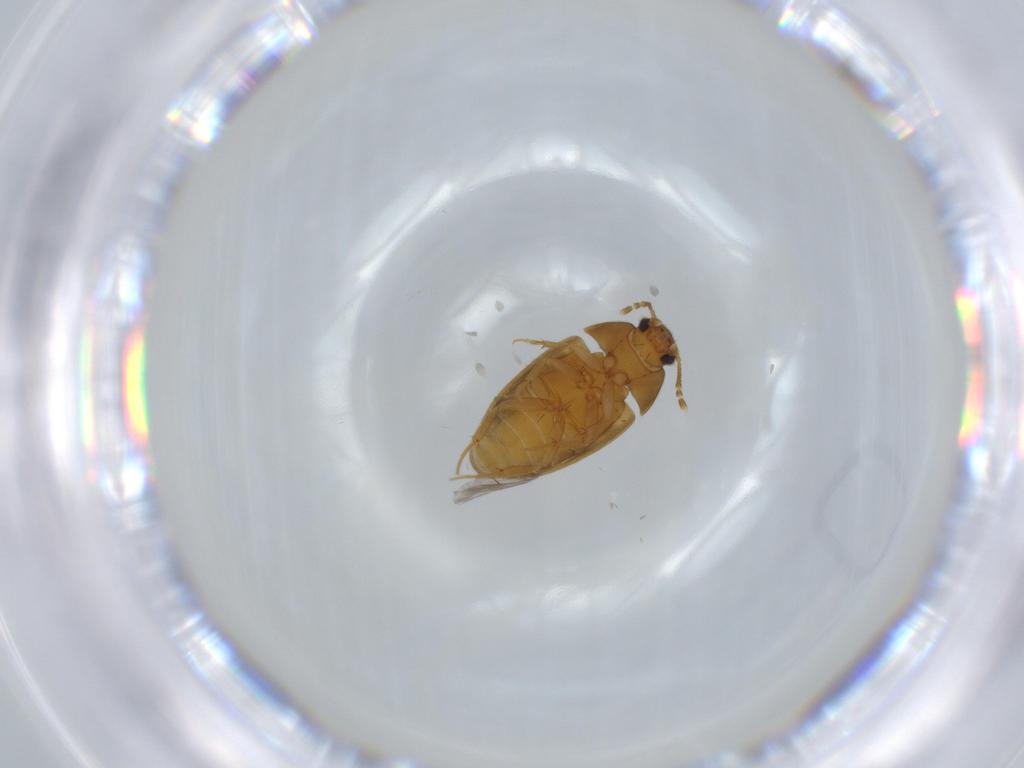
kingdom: Animalia
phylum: Arthropoda
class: Insecta
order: Coleoptera
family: Mycetophagidae
